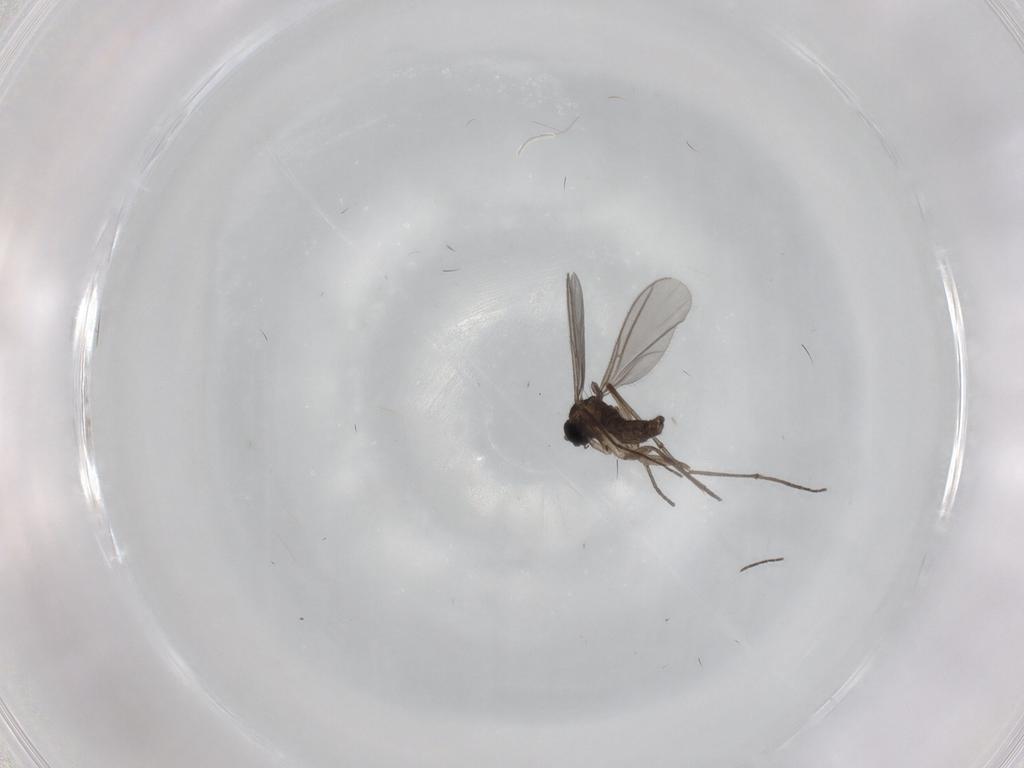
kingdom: Animalia
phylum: Arthropoda
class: Insecta
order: Diptera
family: Sciaridae
